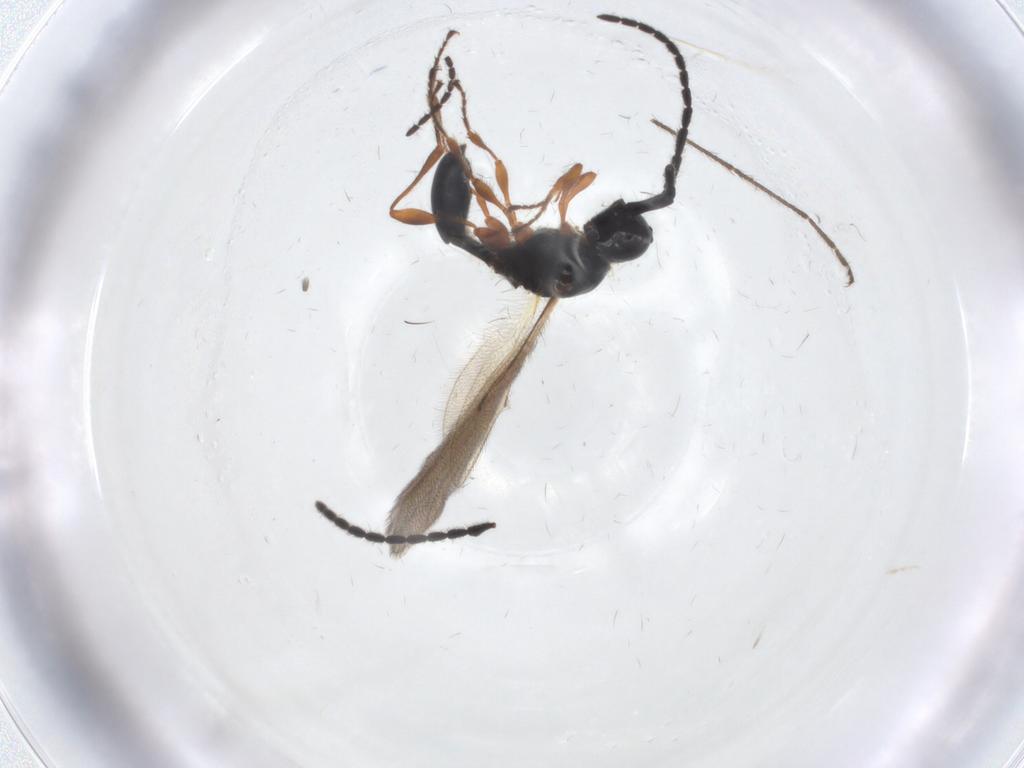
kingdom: Animalia
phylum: Arthropoda
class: Insecta
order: Hymenoptera
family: Diapriidae
